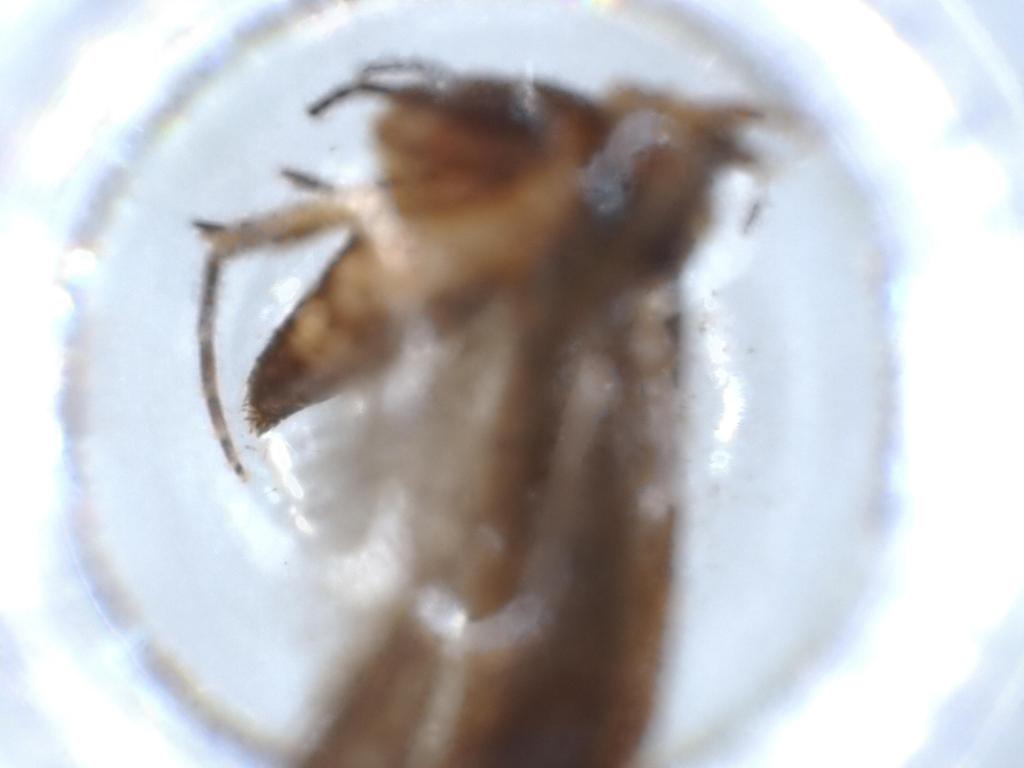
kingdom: Animalia
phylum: Arthropoda
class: Insecta
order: Lepidoptera
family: Gelechiidae
